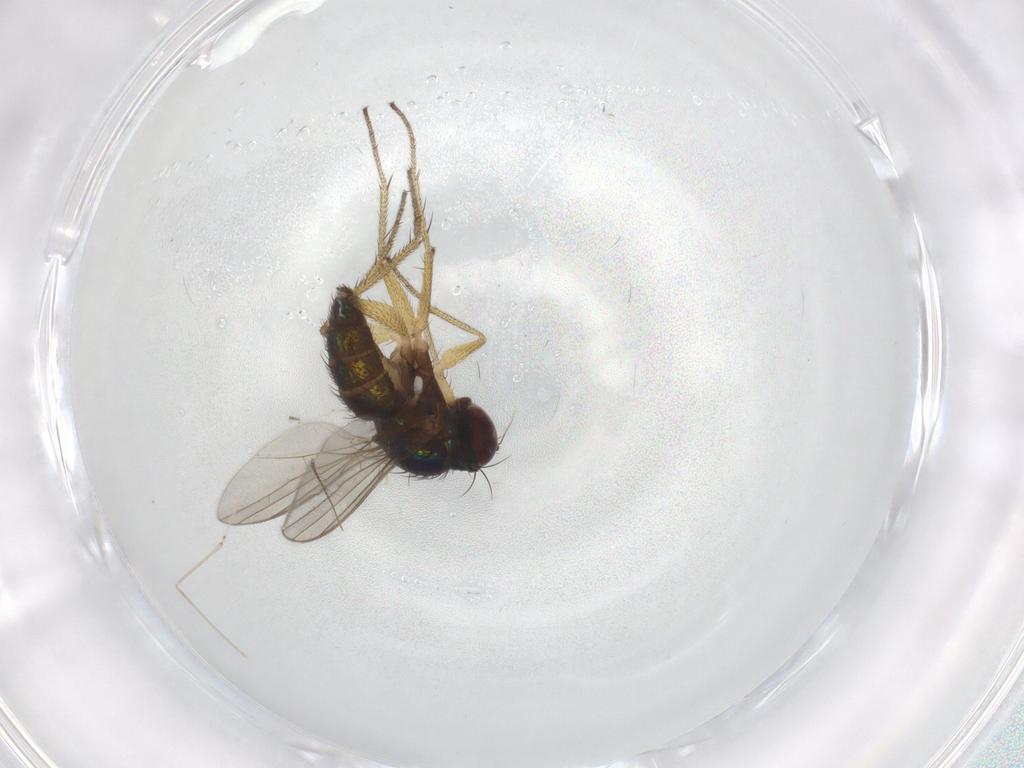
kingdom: Animalia
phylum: Arthropoda
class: Insecta
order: Diptera
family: Dolichopodidae
